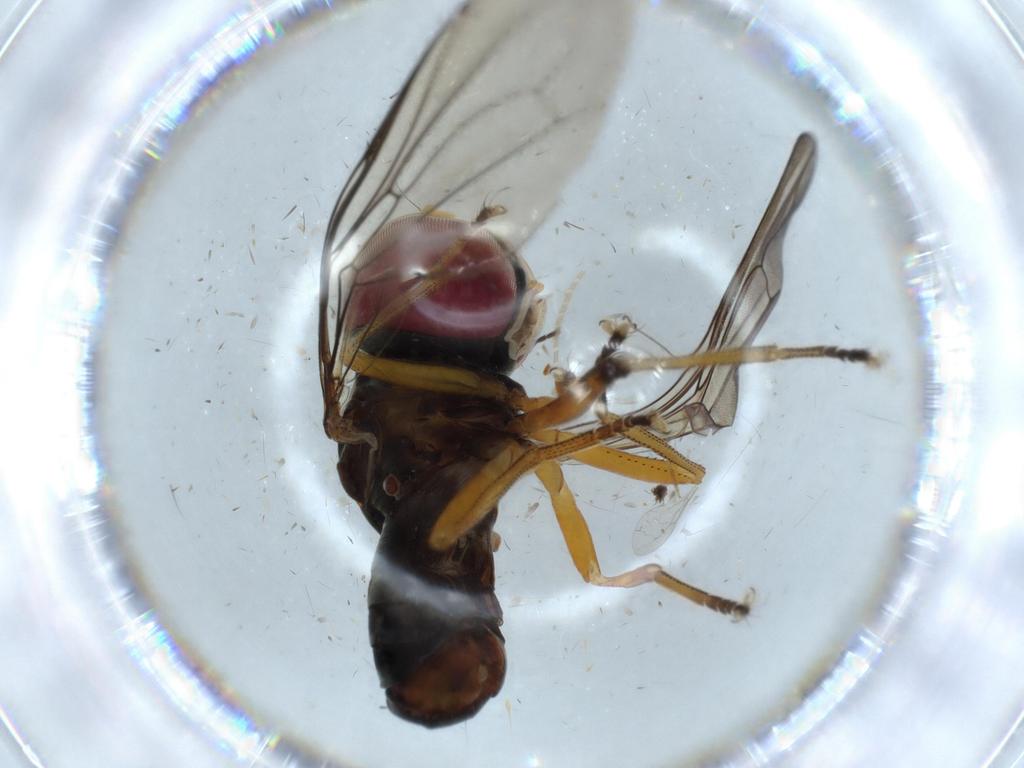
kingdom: Animalia
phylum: Arthropoda
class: Insecta
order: Diptera
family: Pipunculidae
